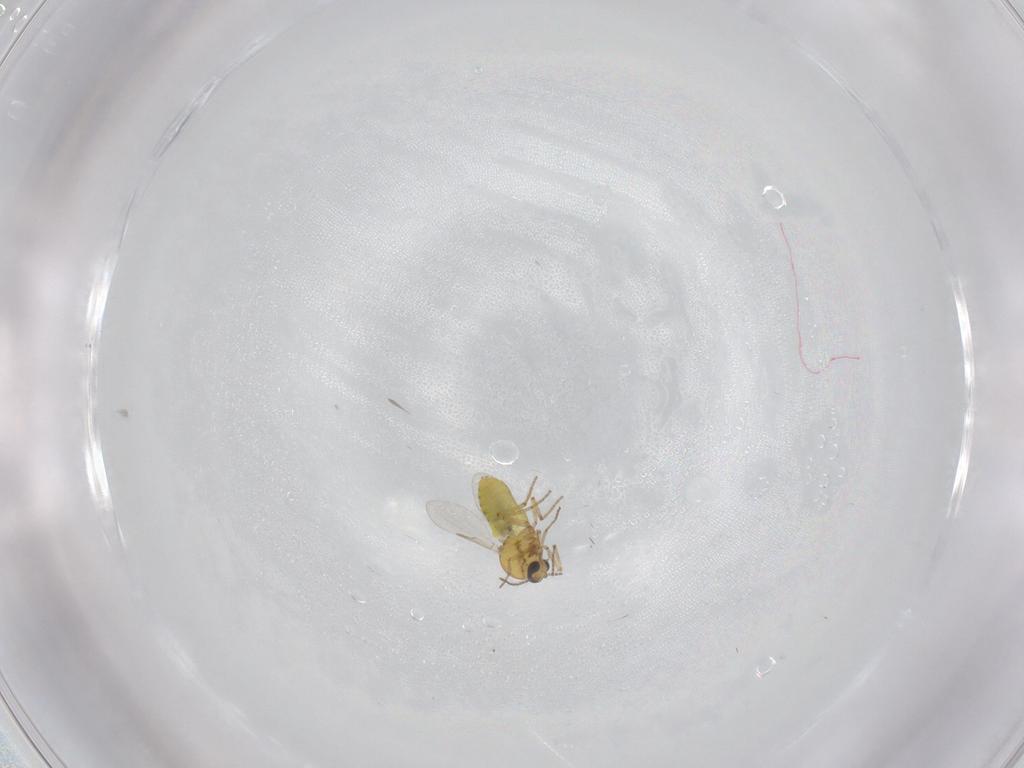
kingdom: Animalia
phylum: Arthropoda
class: Insecta
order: Diptera
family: Ceratopogonidae
